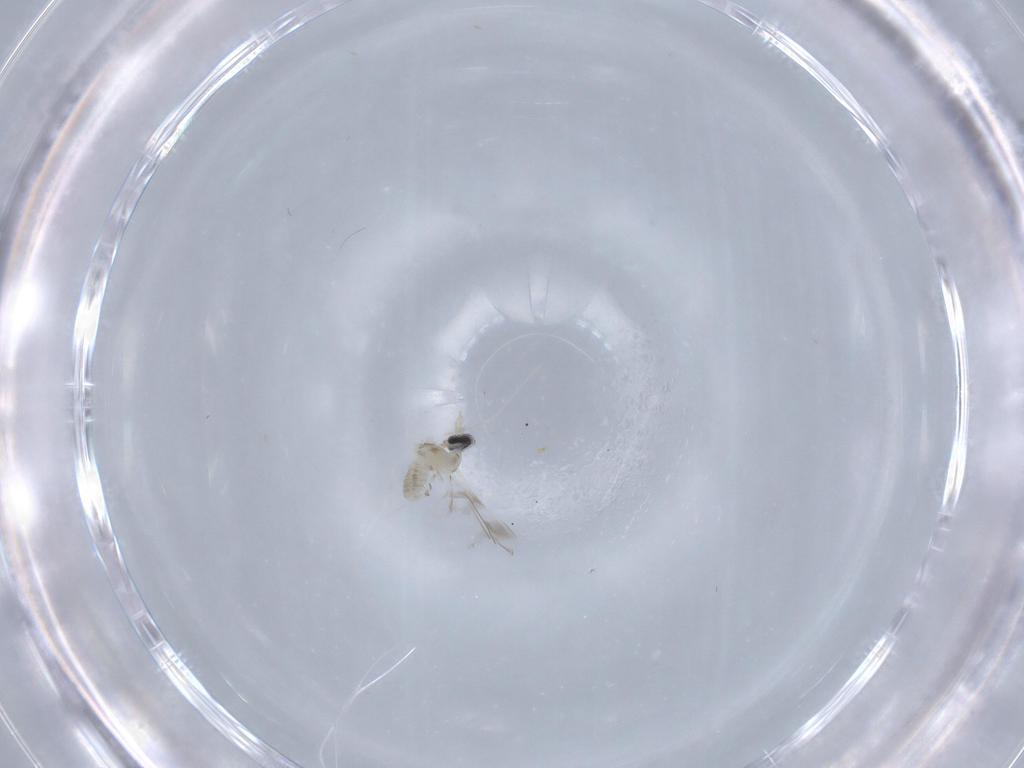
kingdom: Animalia
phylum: Arthropoda
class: Insecta
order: Diptera
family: Cecidomyiidae
